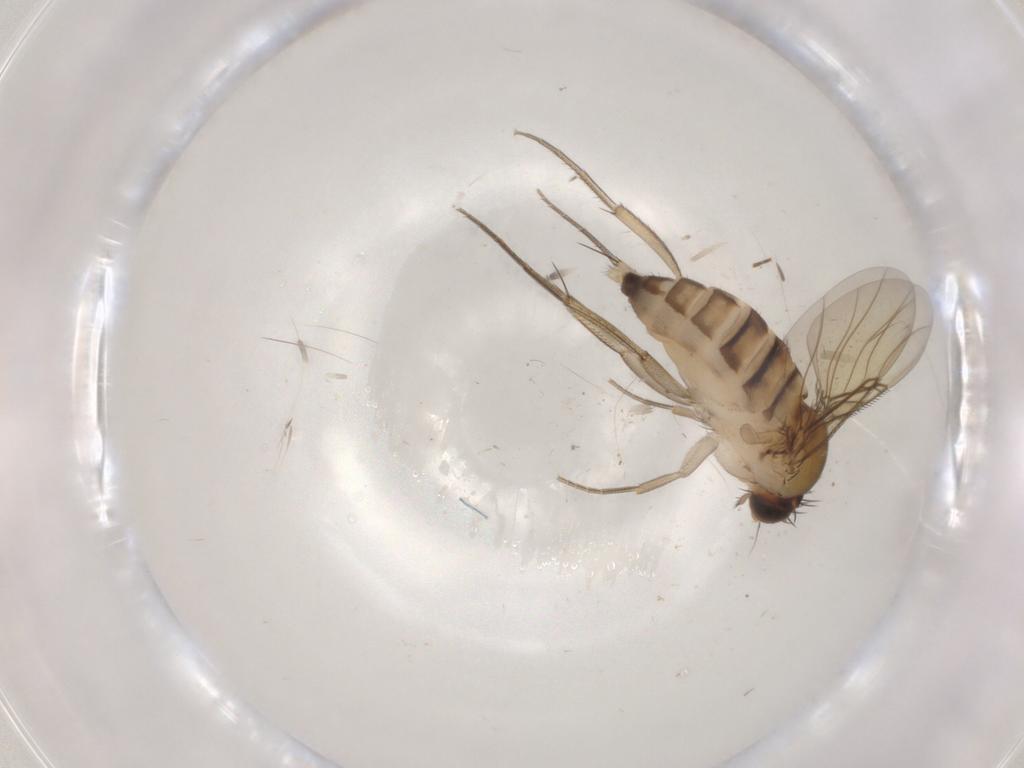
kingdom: Animalia
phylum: Arthropoda
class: Insecta
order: Diptera
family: Phoridae
